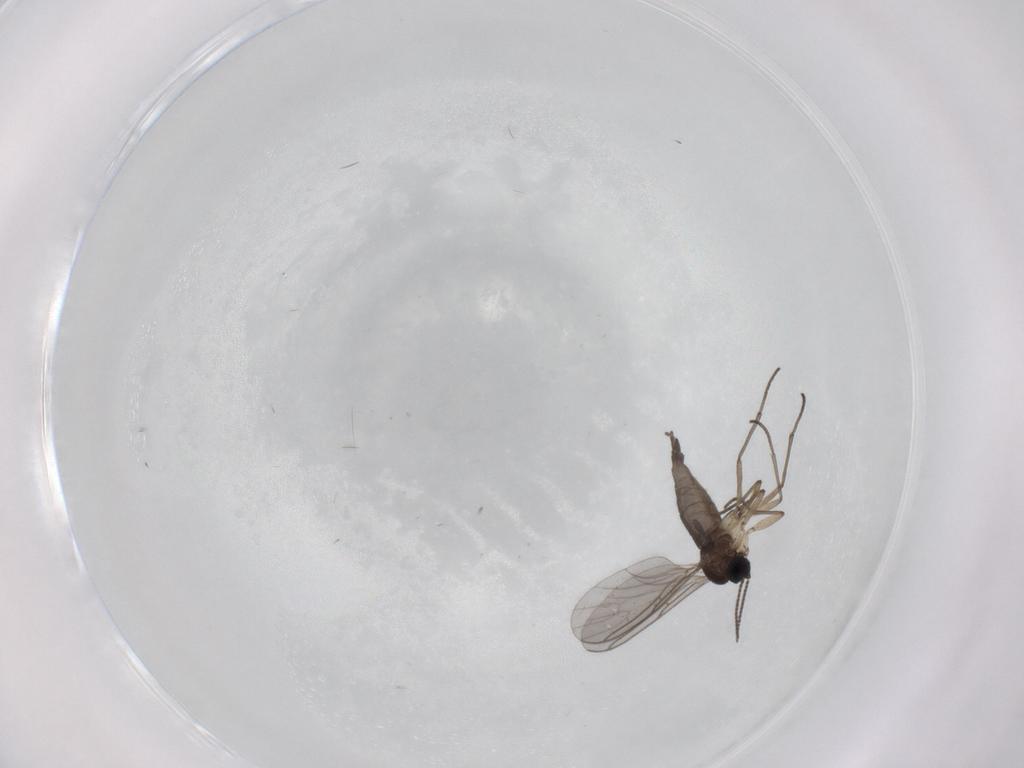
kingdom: Animalia
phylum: Arthropoda
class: Insecta
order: Diptera
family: Sciaridae
